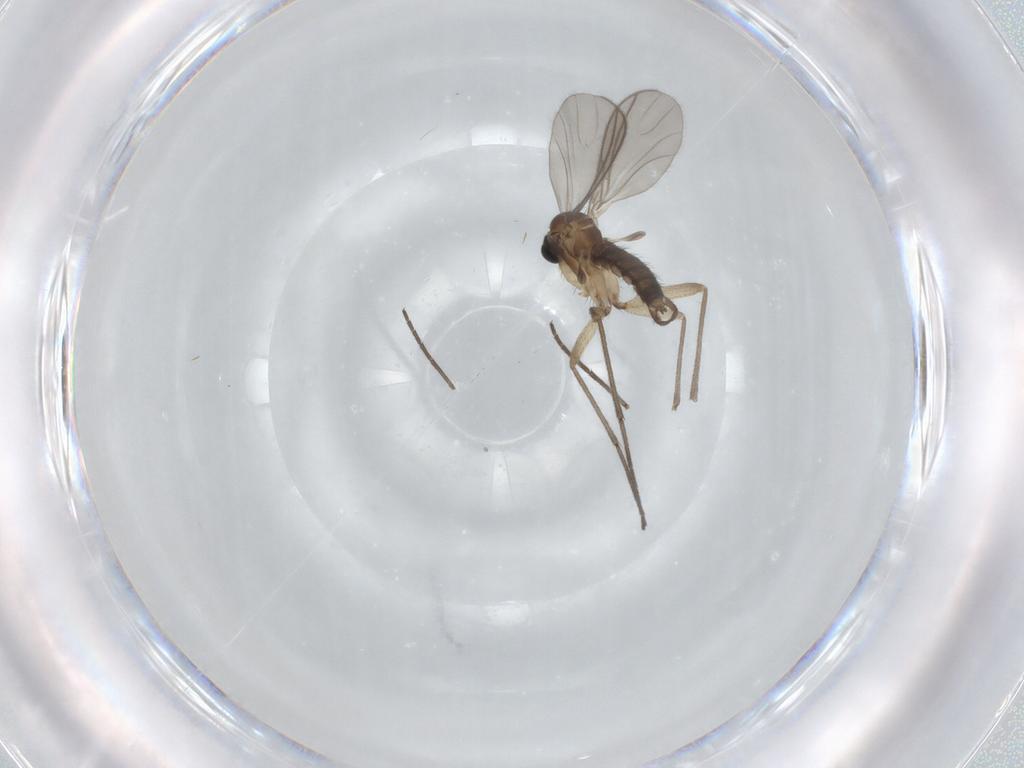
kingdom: Animalia
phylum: Arthropoda
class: Insecta
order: Diptera
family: Sciaridae
